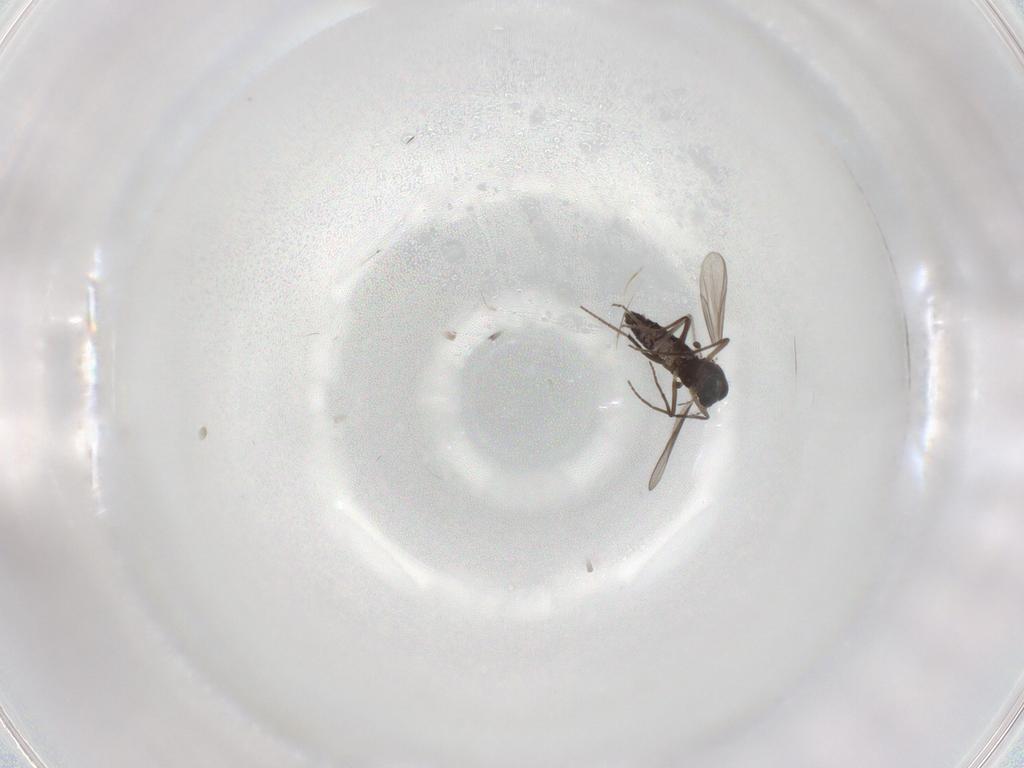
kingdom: Animalia
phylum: Arthropoda
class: Insecta
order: Diptera
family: Chironomidae
